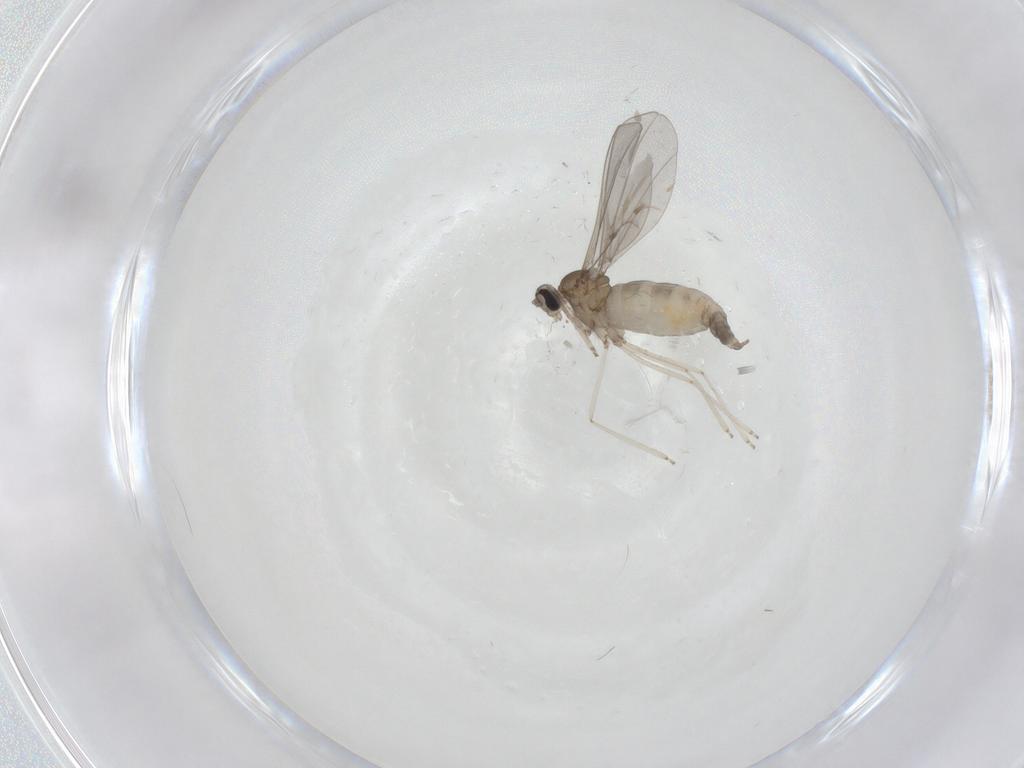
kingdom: Animalia
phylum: Arthropoda
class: Insecta
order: Diptera
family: Cecidomyiidae
